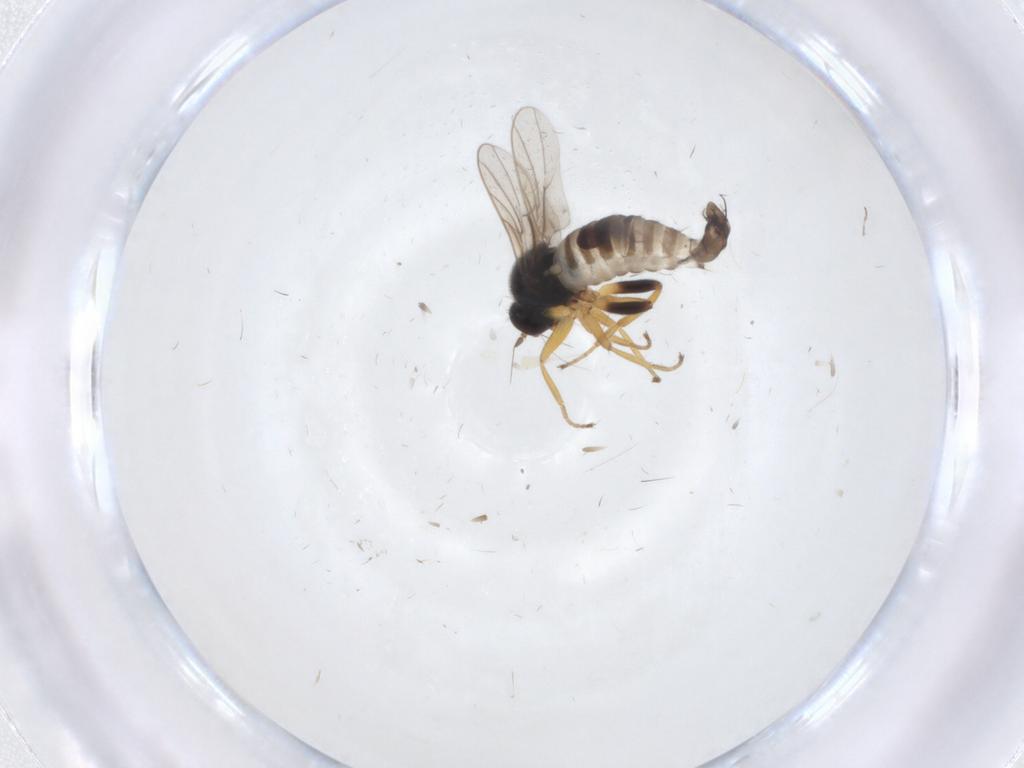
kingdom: Animalia
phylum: Arthropoda
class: Insecta
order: Diptera
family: Hybotidae
